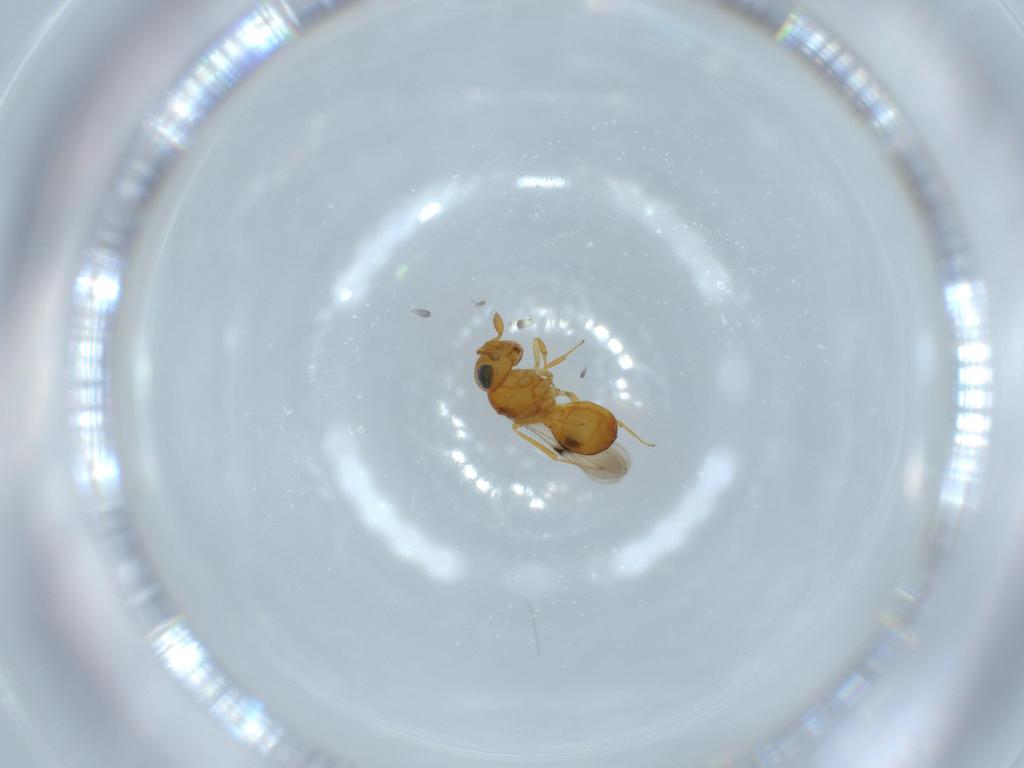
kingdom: Animalia
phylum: Arthropoda
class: Insecta
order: Hymenoptera
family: Scelionidae
